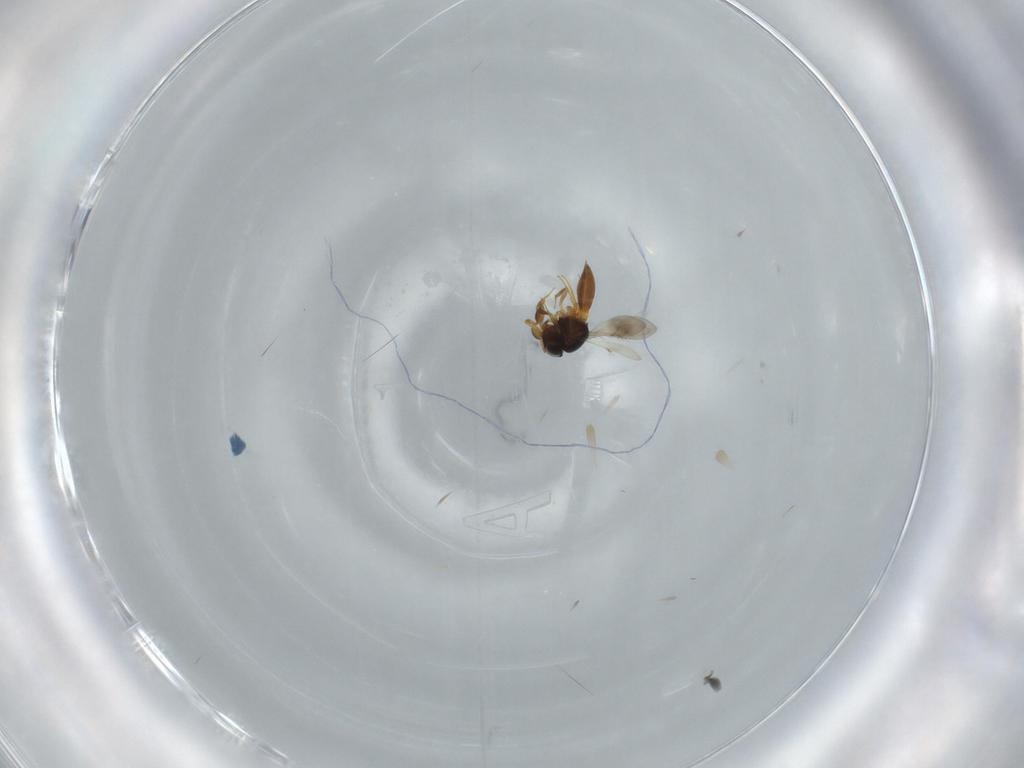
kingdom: Animalia
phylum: Arthropoda
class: Insecta
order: Hymenoptera
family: Scelionidae
